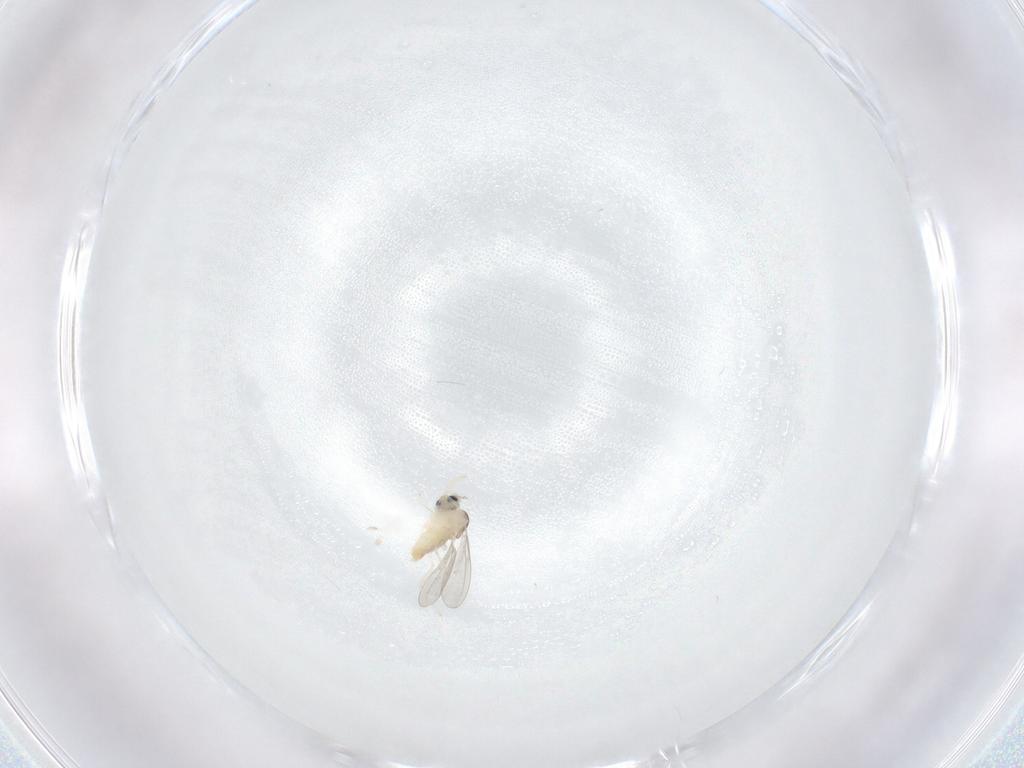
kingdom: Animalia
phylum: Arthropoda
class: Insecta
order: Diptera
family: Cecidomyiidae
